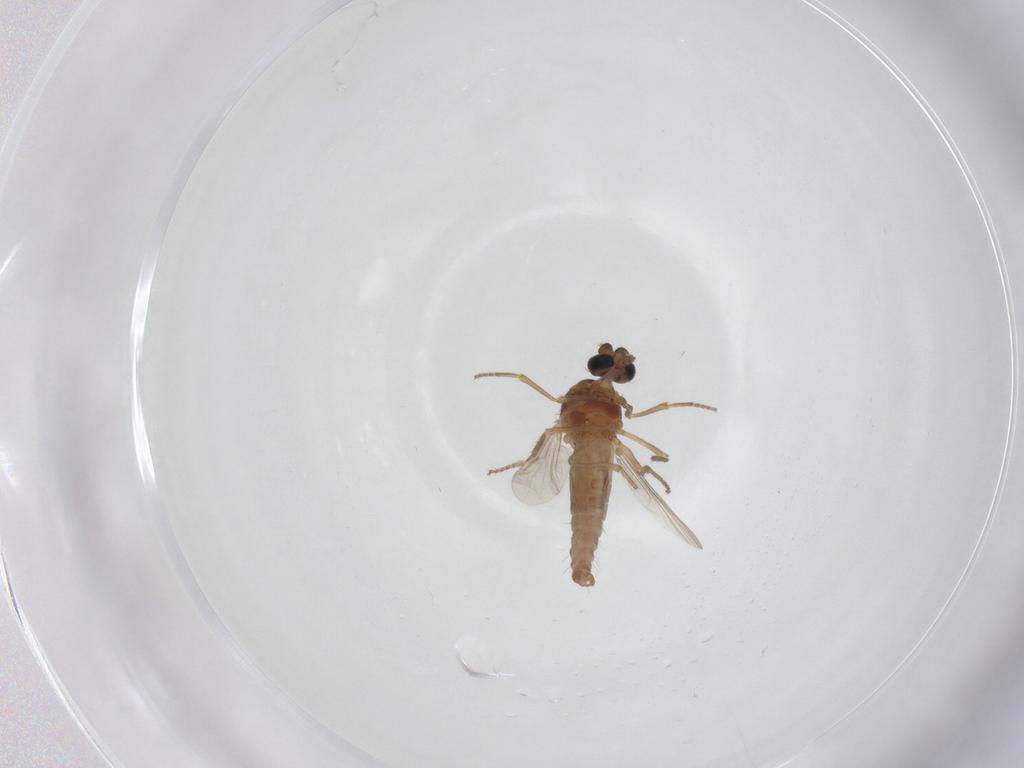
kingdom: Animalia
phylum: Arthropoda
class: Insecta
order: Diptera
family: Ceratopogonidae
